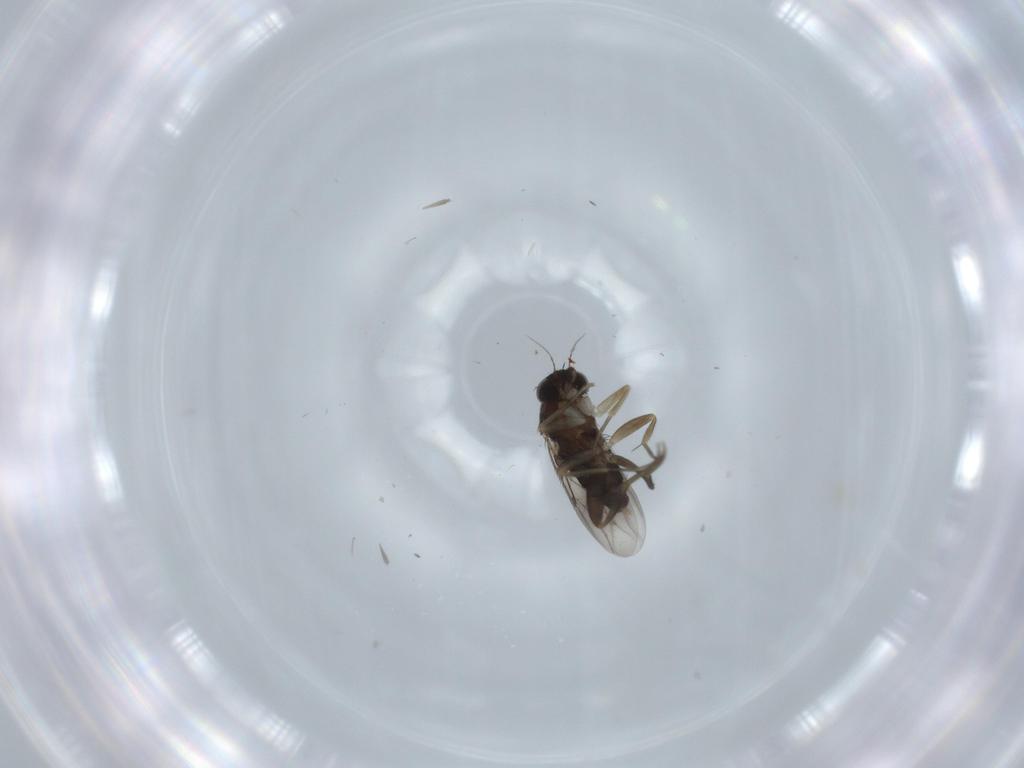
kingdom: Animalia
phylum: Arthropoda
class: Insecta
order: Diptera
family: Phoridae
